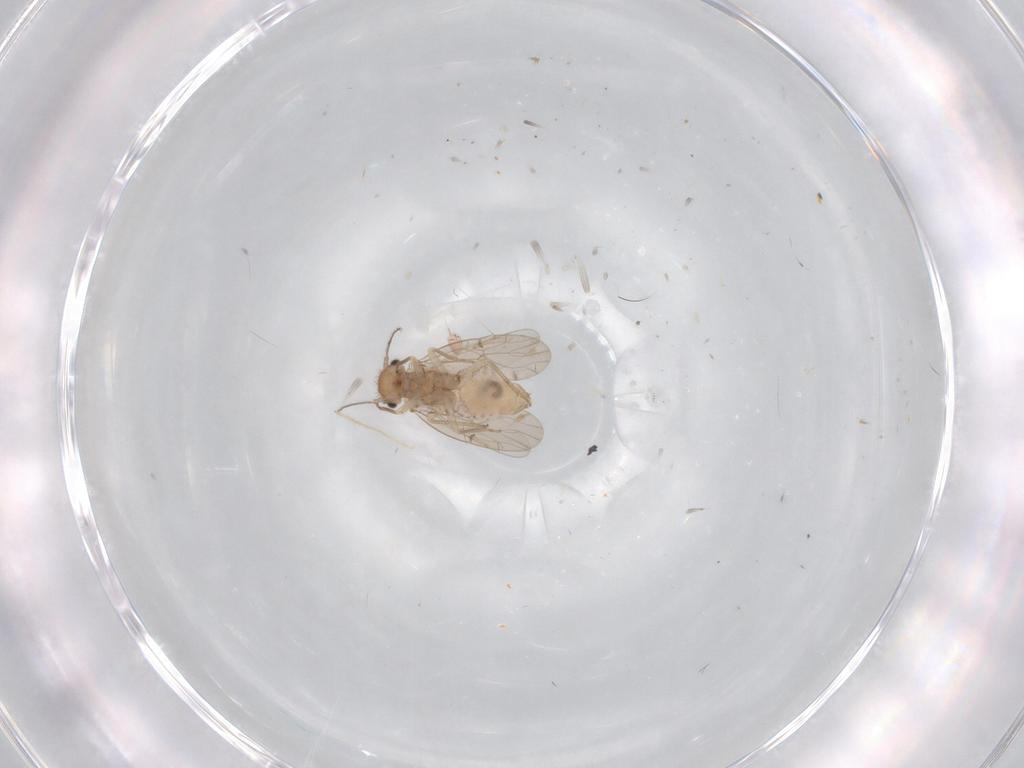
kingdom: Animalia
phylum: Arthropoda
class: Insecta
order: Psocodea
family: Ectopsocidae
